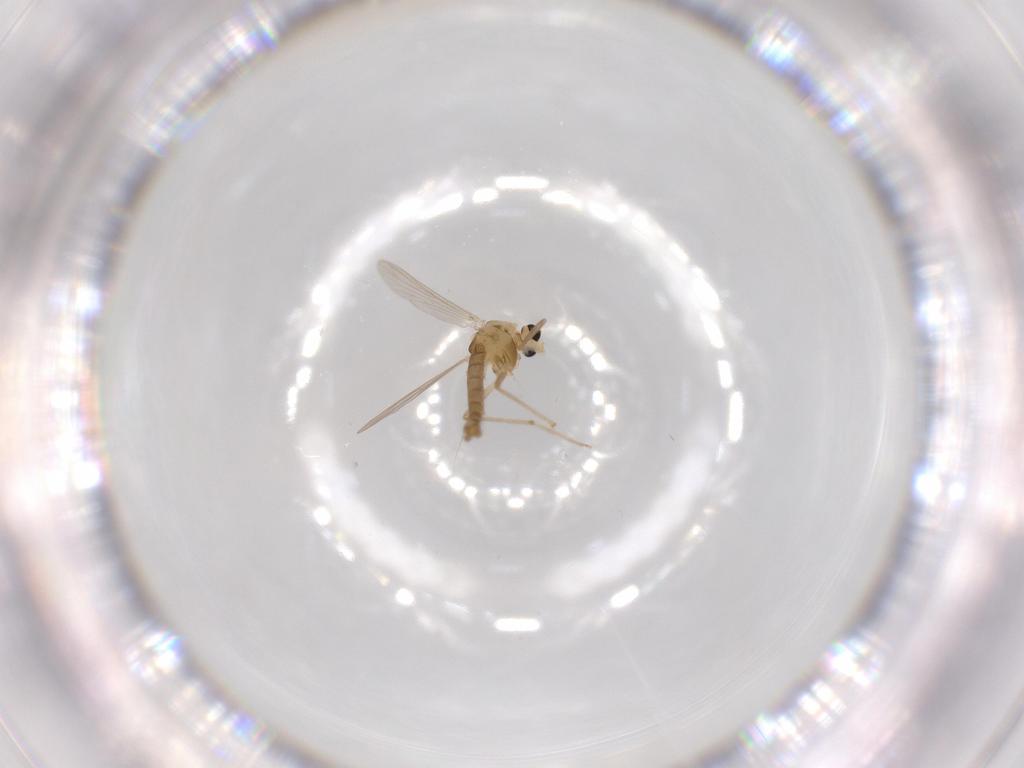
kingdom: Animalia
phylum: Arthropoda
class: Insecta
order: Diptera
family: Chironomidae
